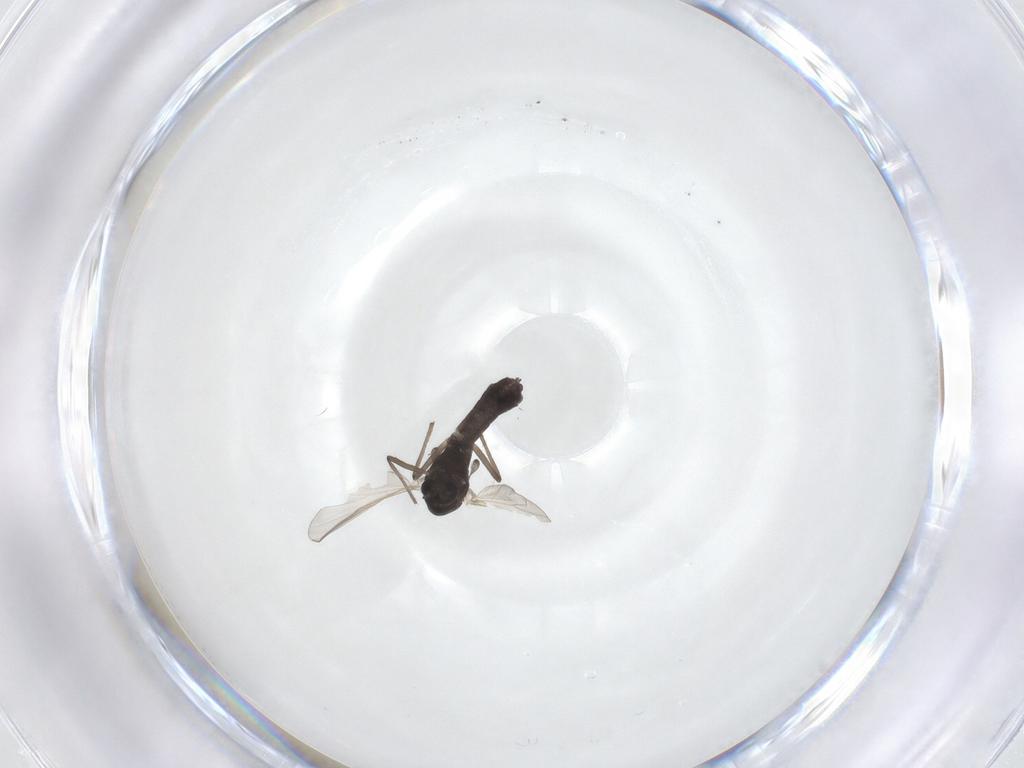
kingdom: Animalia
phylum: Arthropoda
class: Insecta
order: Diptera
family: Chironomidae
